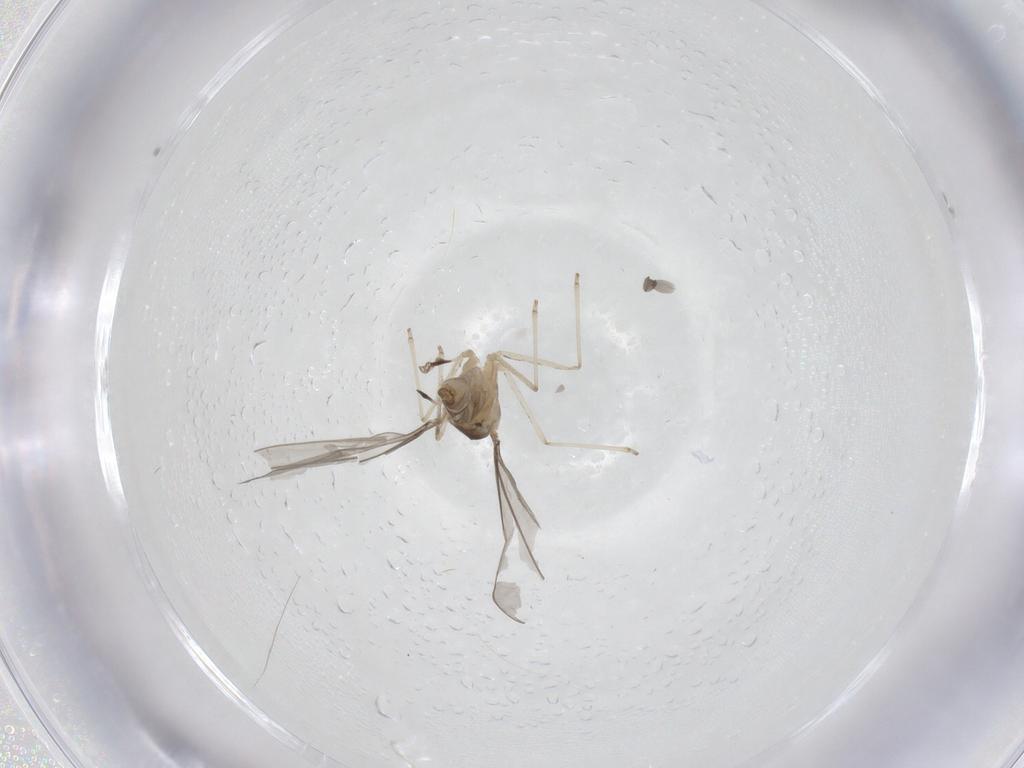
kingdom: Animalia
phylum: Arthropoda
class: Insecta
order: Diptera
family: Cecidomyiidae
